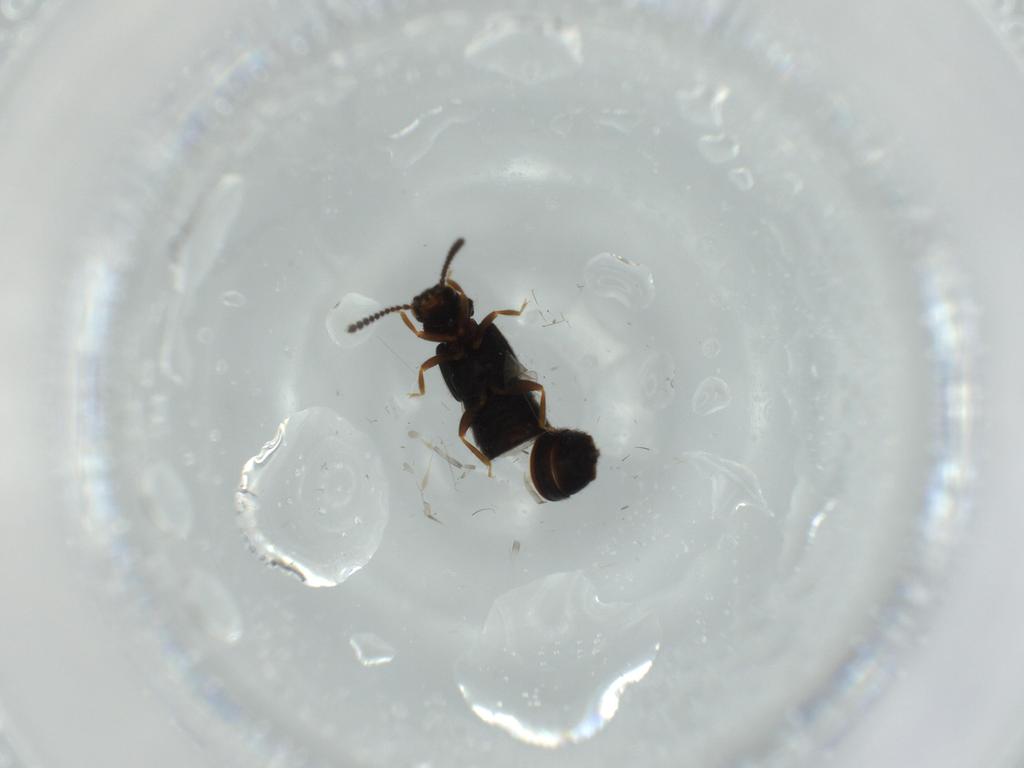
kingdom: Animalia
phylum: Arthropoda
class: Insecta
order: Coleoptera
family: Staphylinidae
